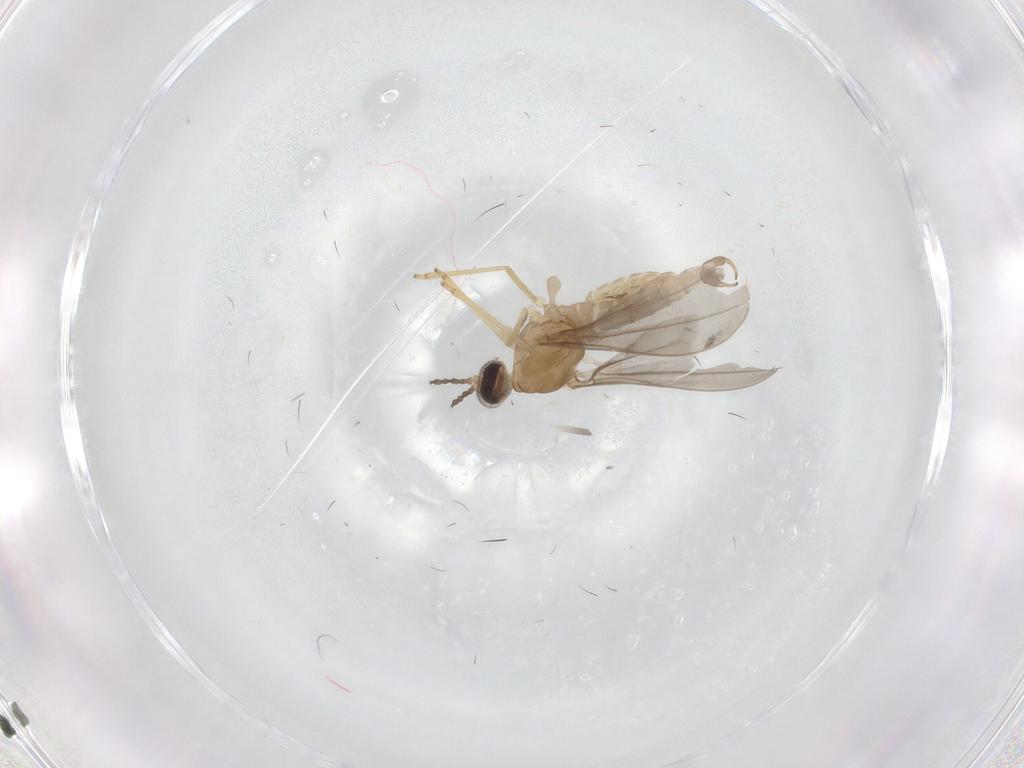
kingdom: Animalia
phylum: Arthropoda
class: Insecta
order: Diptera
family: Cecidomyiidae
